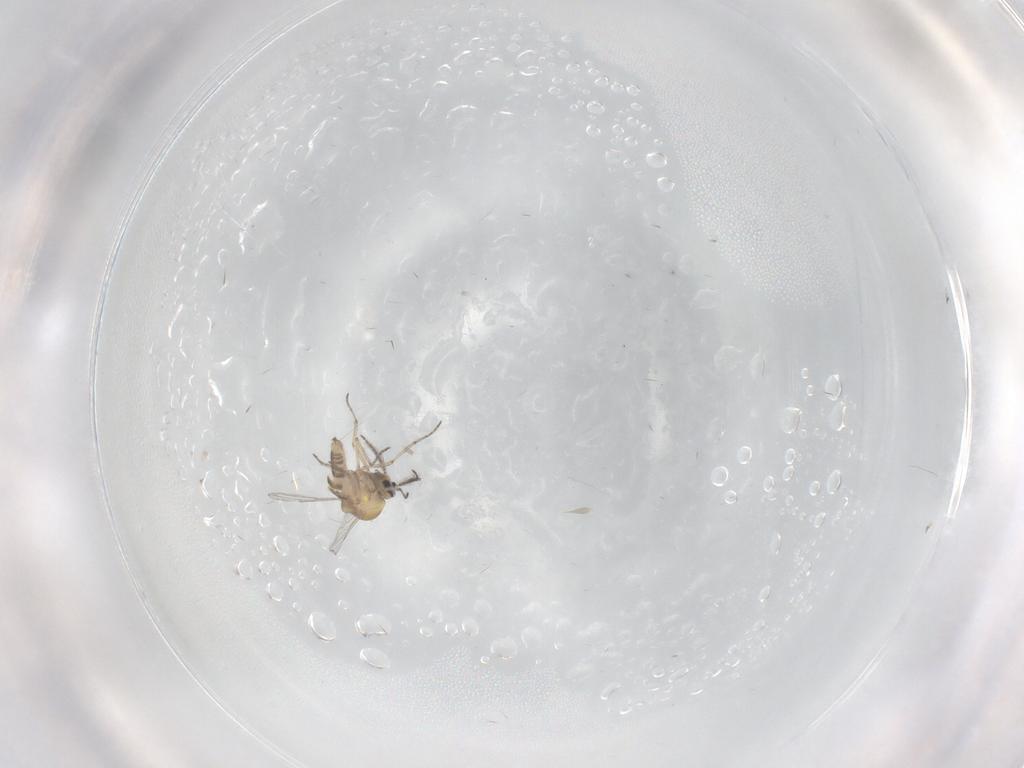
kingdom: Animalia
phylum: Arthropoda
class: Insecta
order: Diptera
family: Ceratopogonidae
